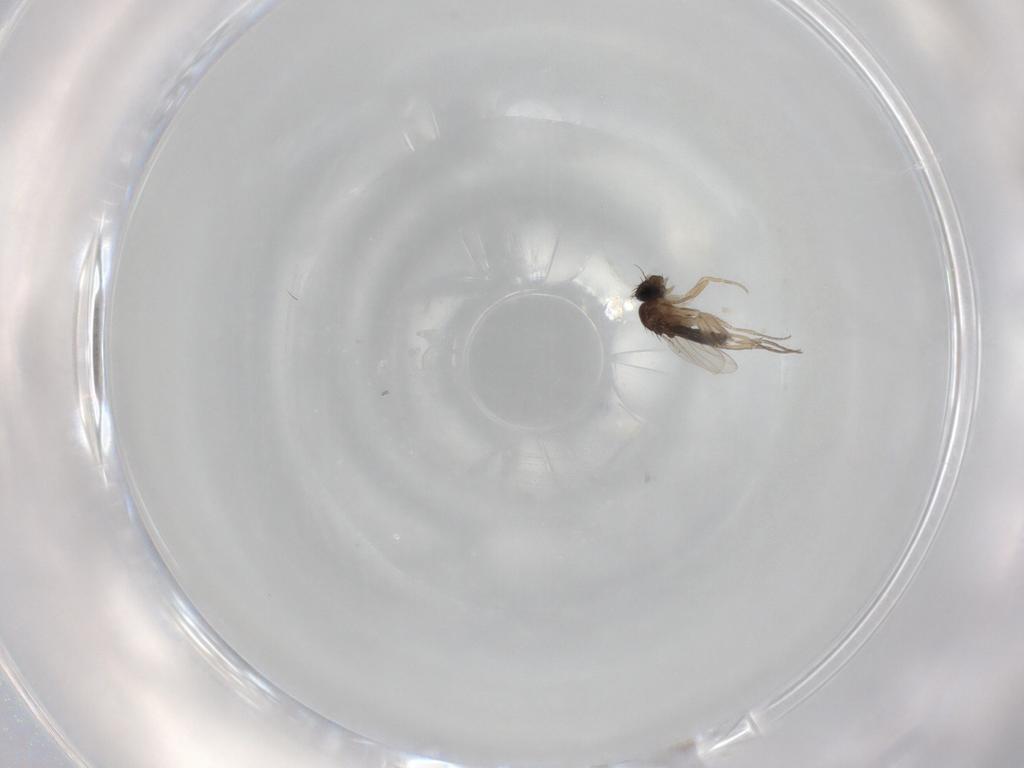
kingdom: Animalia
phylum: Arthropoda
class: Insecta
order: Diptera
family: Phoridae
